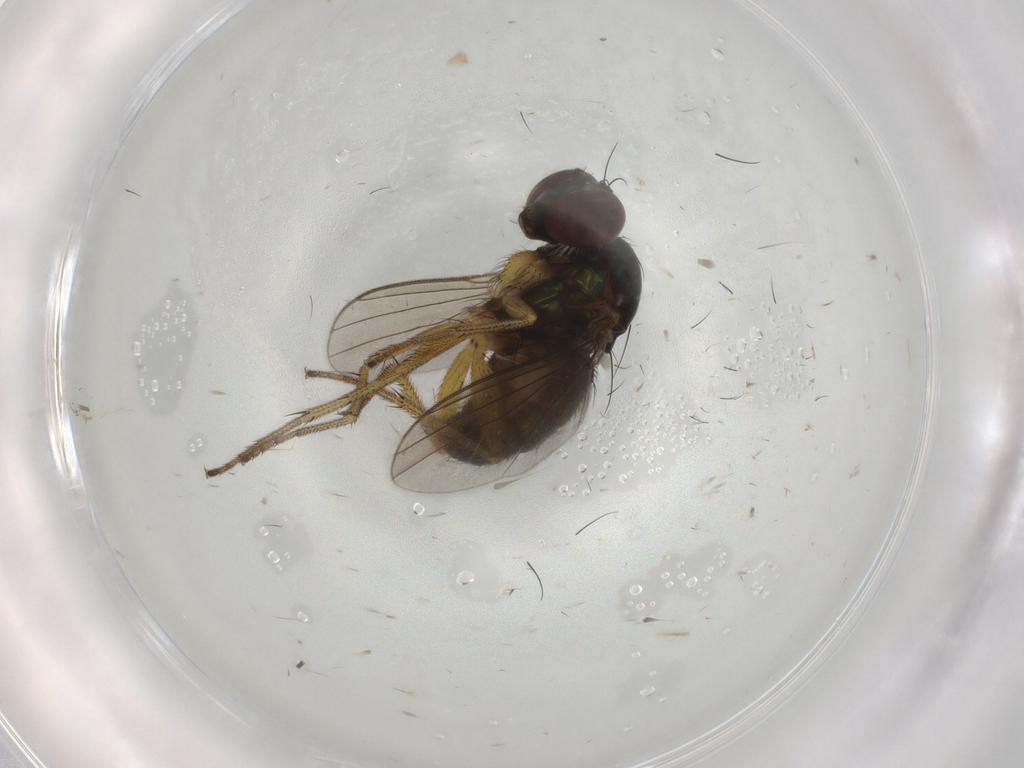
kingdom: Animalia
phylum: Arthropoda
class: Insecta
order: Diptera
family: Dolichopodidae
